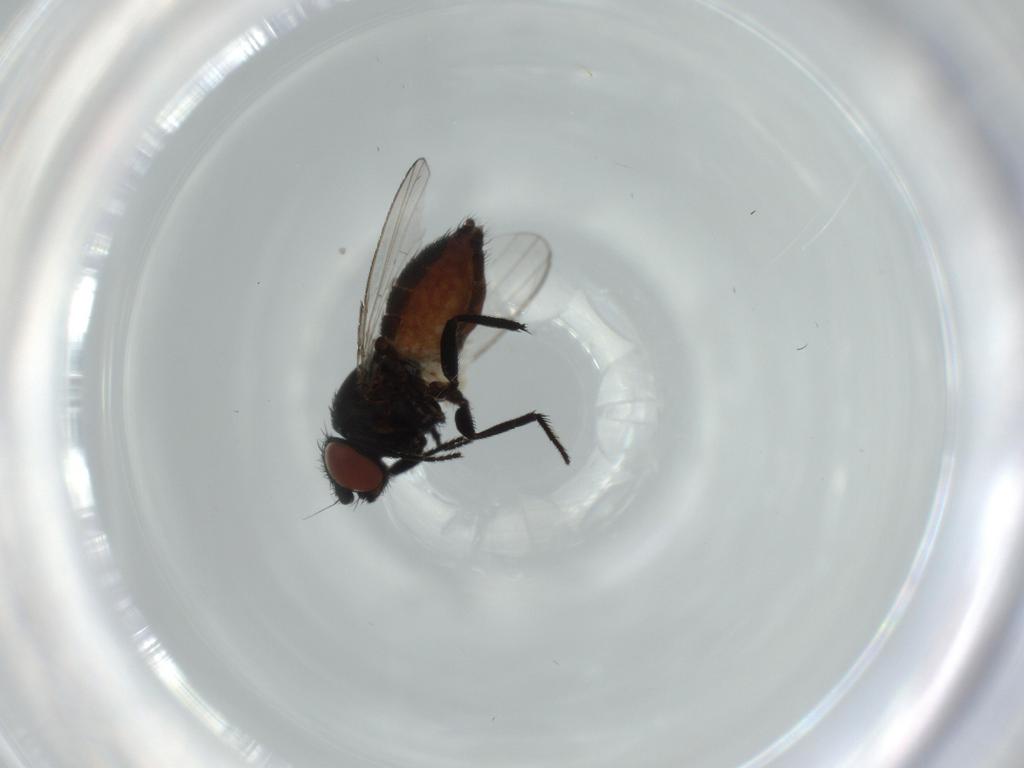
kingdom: Animalia
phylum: Arthropoda
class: Insecta
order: Diptera
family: Milichiidae
